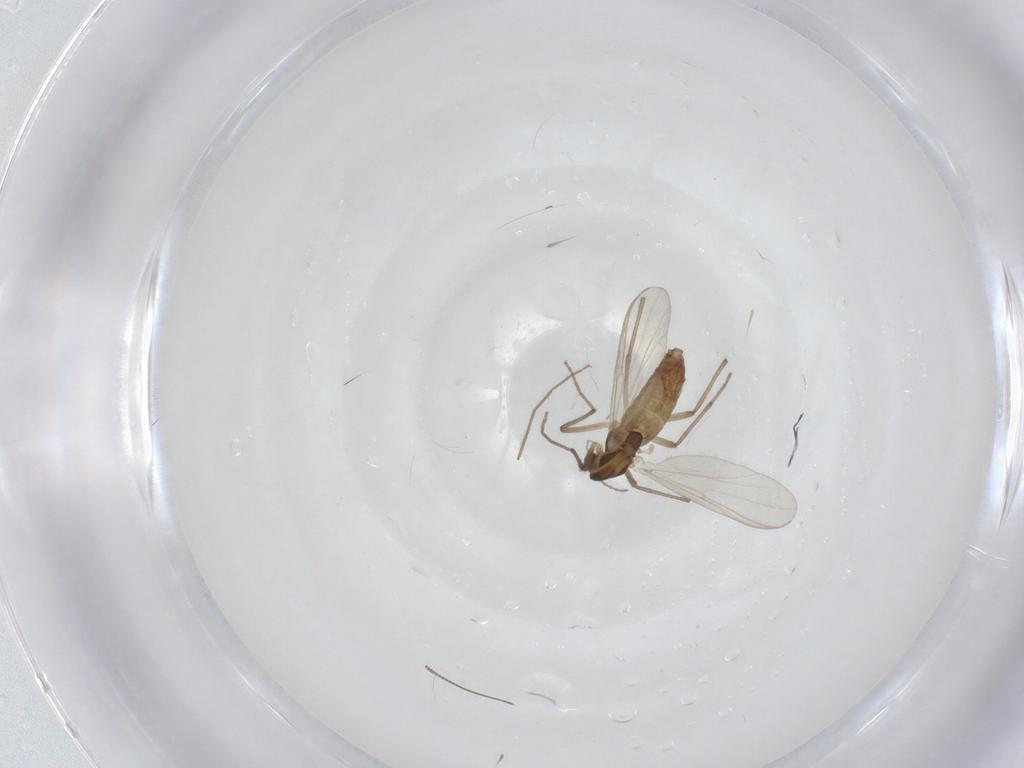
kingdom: Animalia
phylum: Arthropoda
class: Insecta
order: Diptera
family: Chironomidae
